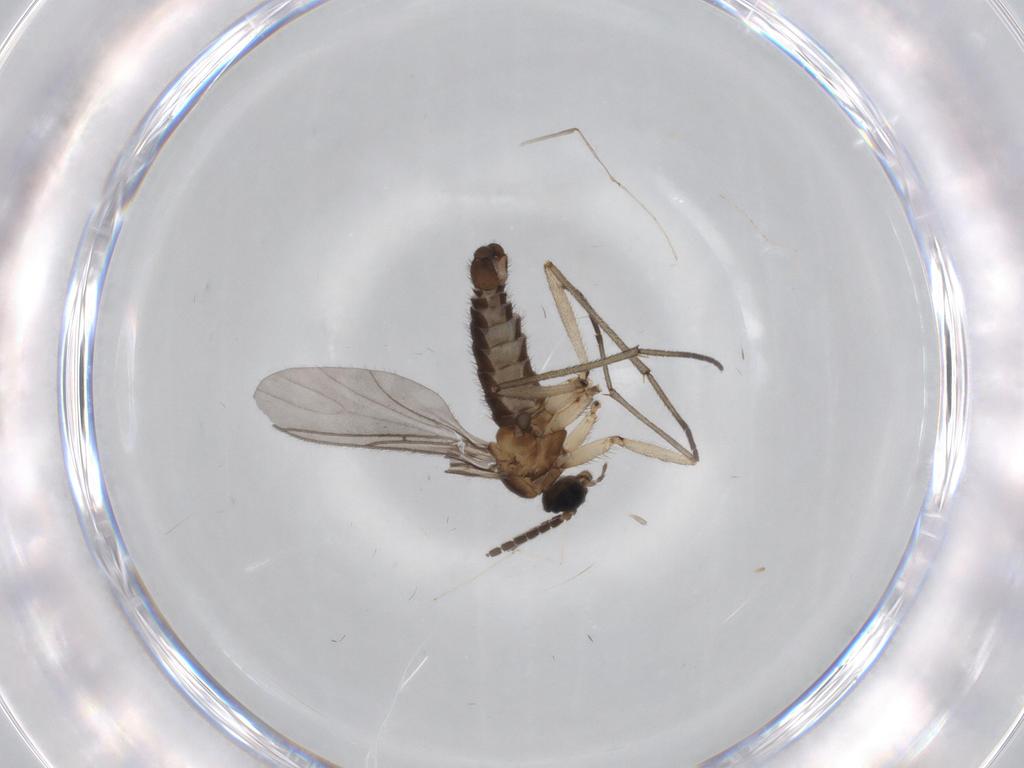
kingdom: Animalia
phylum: Arthropoda
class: Insecta
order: Diptera
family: Sciaridae
